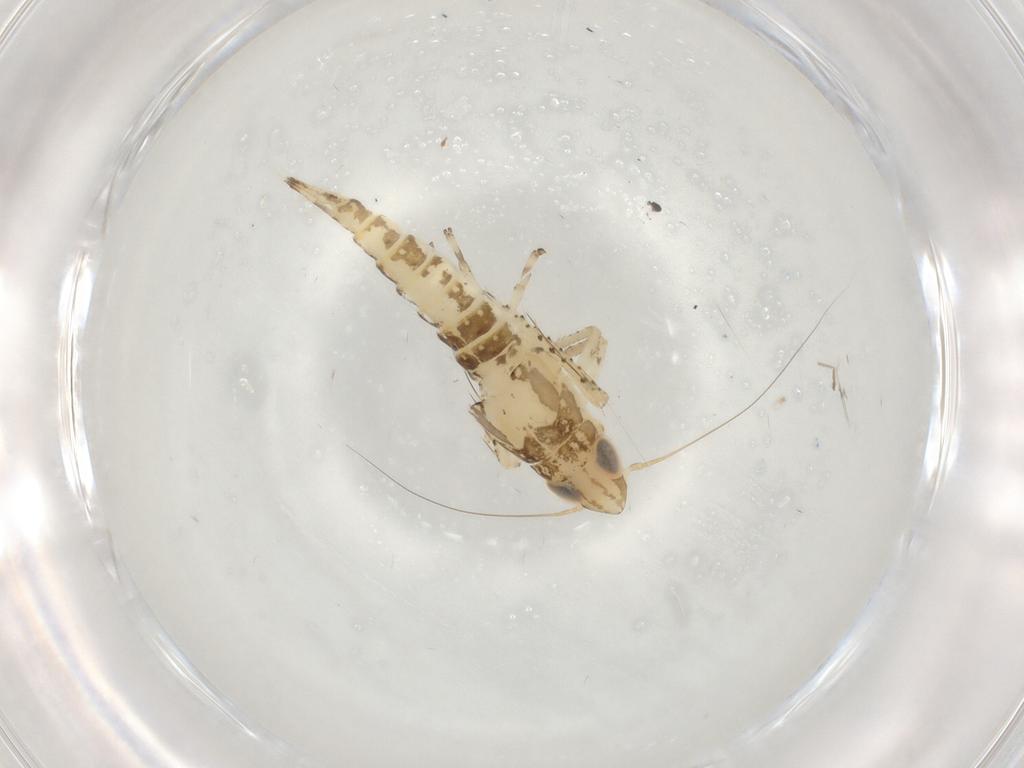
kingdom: Animalia
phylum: Arthropoda
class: Insecta
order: Hemiptera
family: Cicadellidae
